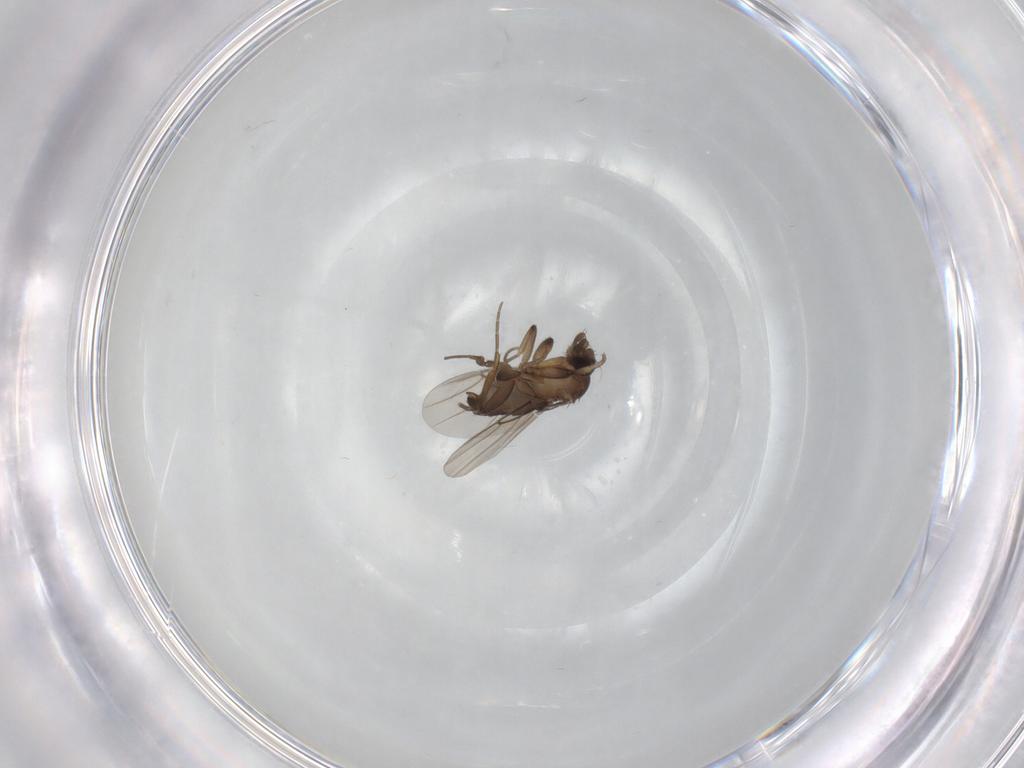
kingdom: Animalia
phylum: Arthropoda
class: Insecta
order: Diptera
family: Phoridae
